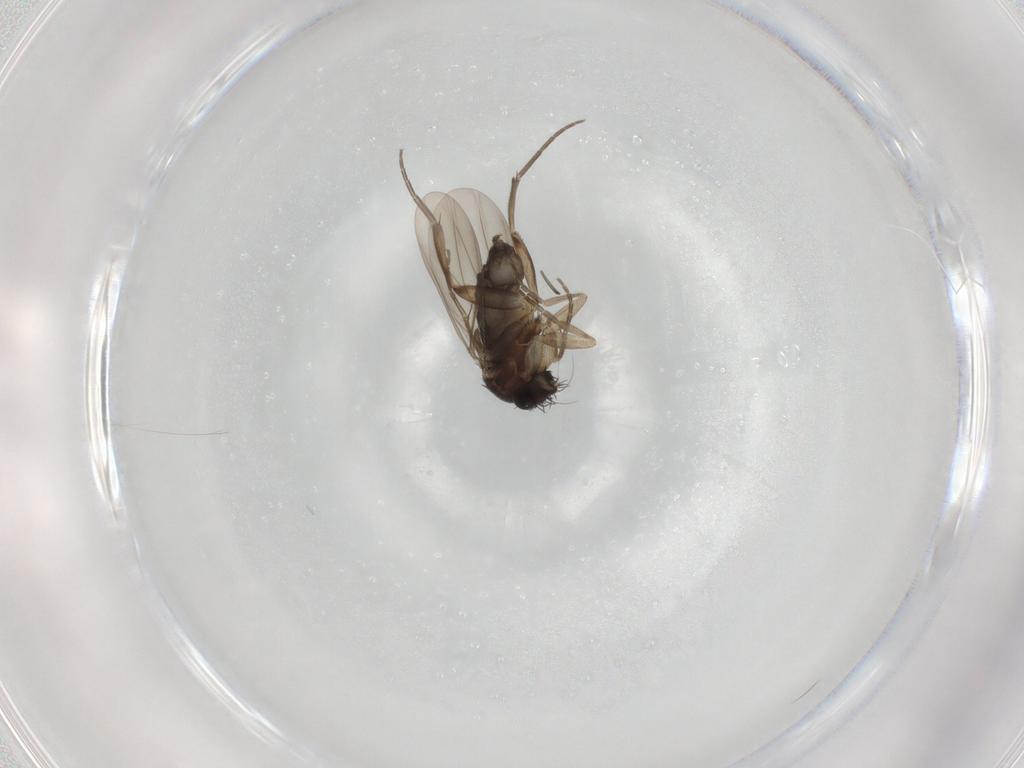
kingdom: Animalia
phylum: Arthropoda
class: Insecta
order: Diptera
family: Phoridae
